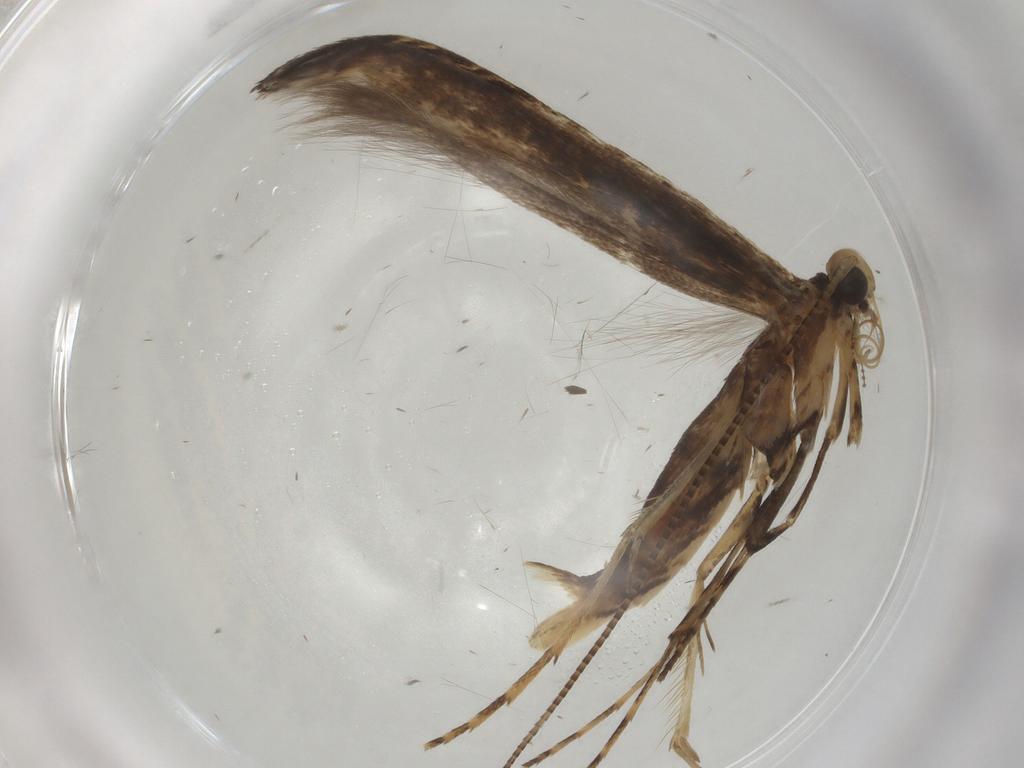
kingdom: Animalia
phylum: Arthropoda
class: Insecta
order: Lepidoptera
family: Gracillariidae
